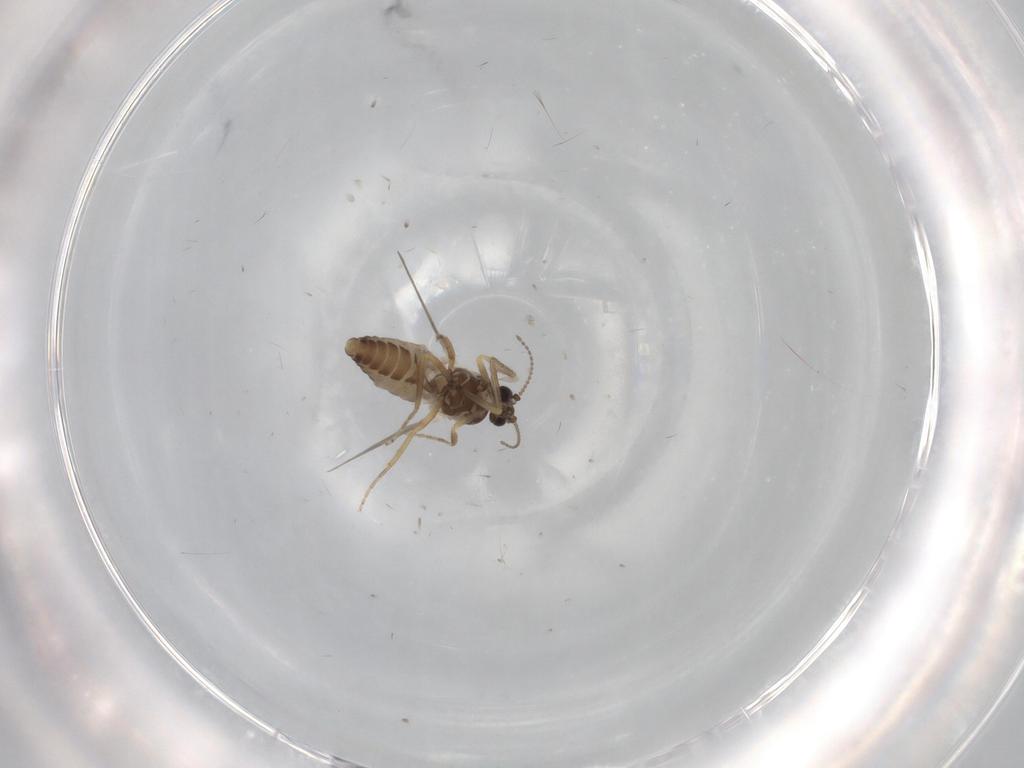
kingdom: Animalia
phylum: Arthropoda
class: Insecta
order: Diptera
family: Ceratopogonidae
